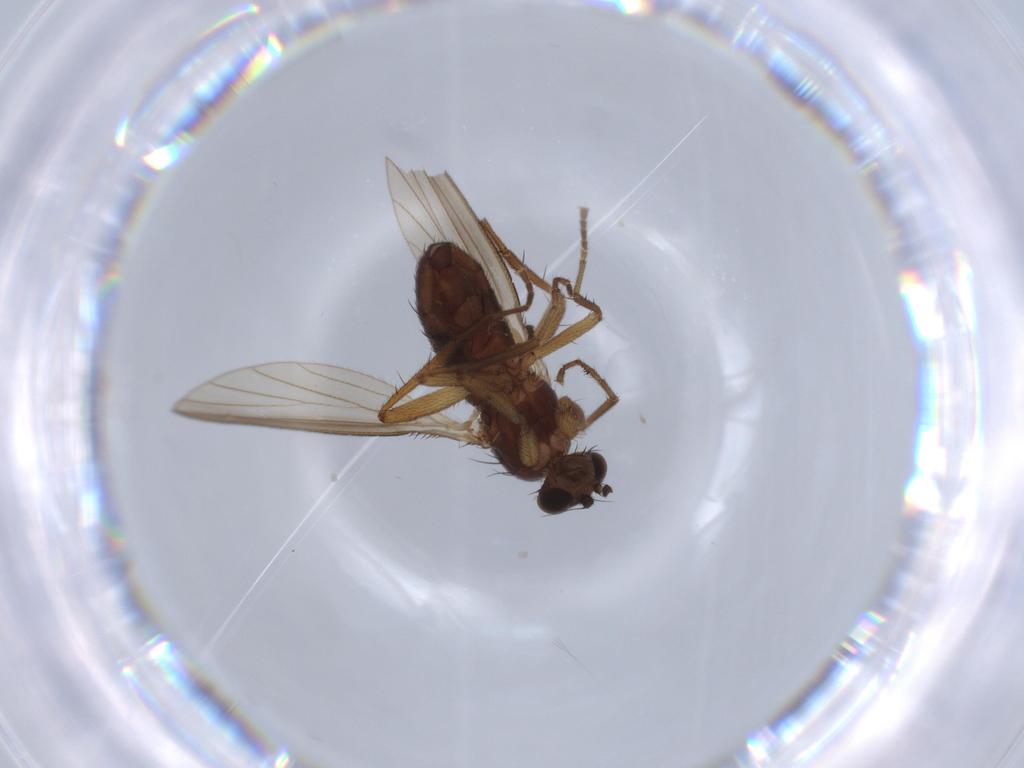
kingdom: Animalia
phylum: Arthropoda
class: Insecta
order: Diptera
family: Lonchopteridae
